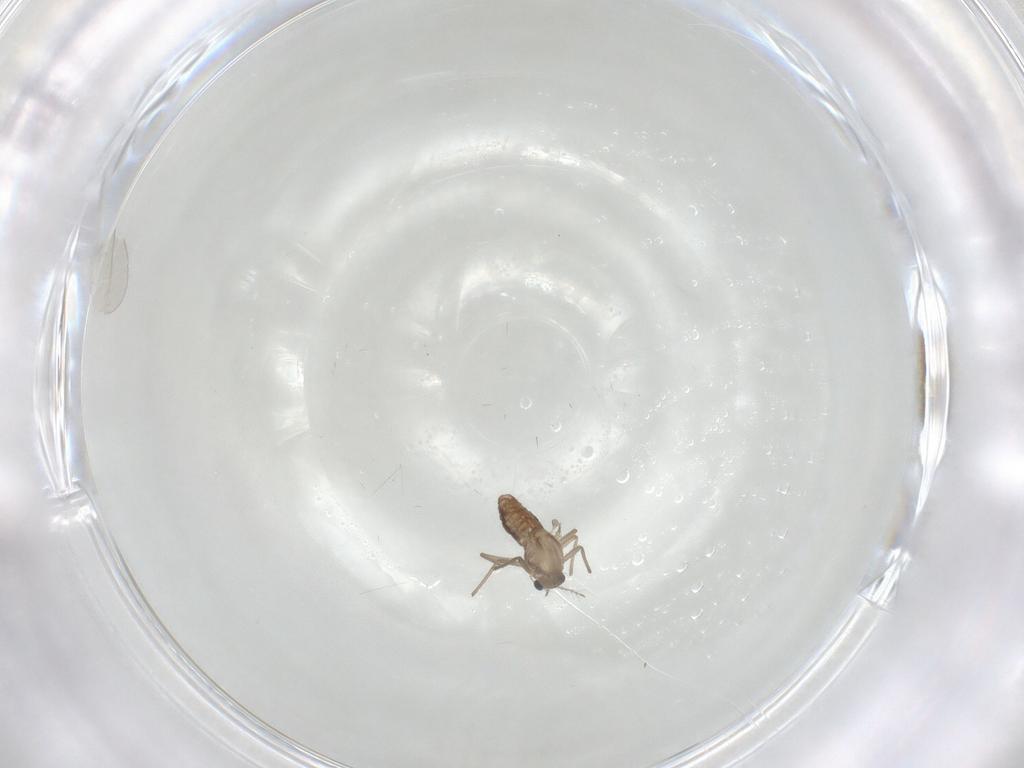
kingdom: Animalia
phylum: Arthropoda
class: Insecta
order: Diptera
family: Chironomidae
